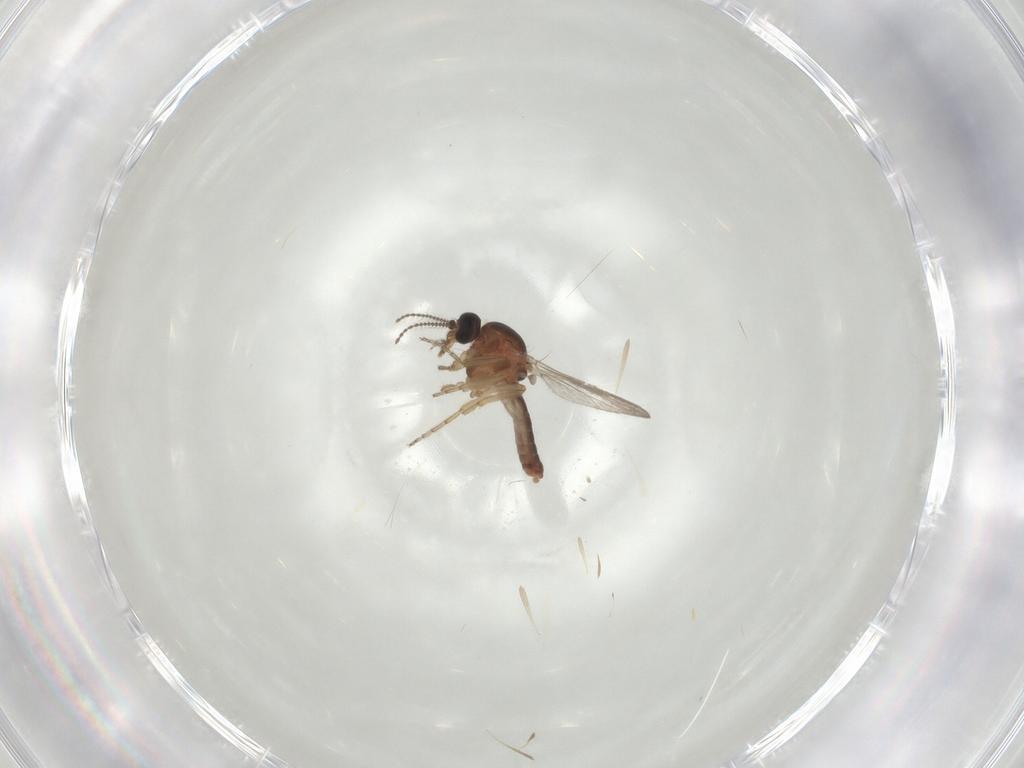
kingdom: Animalia
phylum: Arthropoda
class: Insecta
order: Diptera
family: Ceratopogonidae
